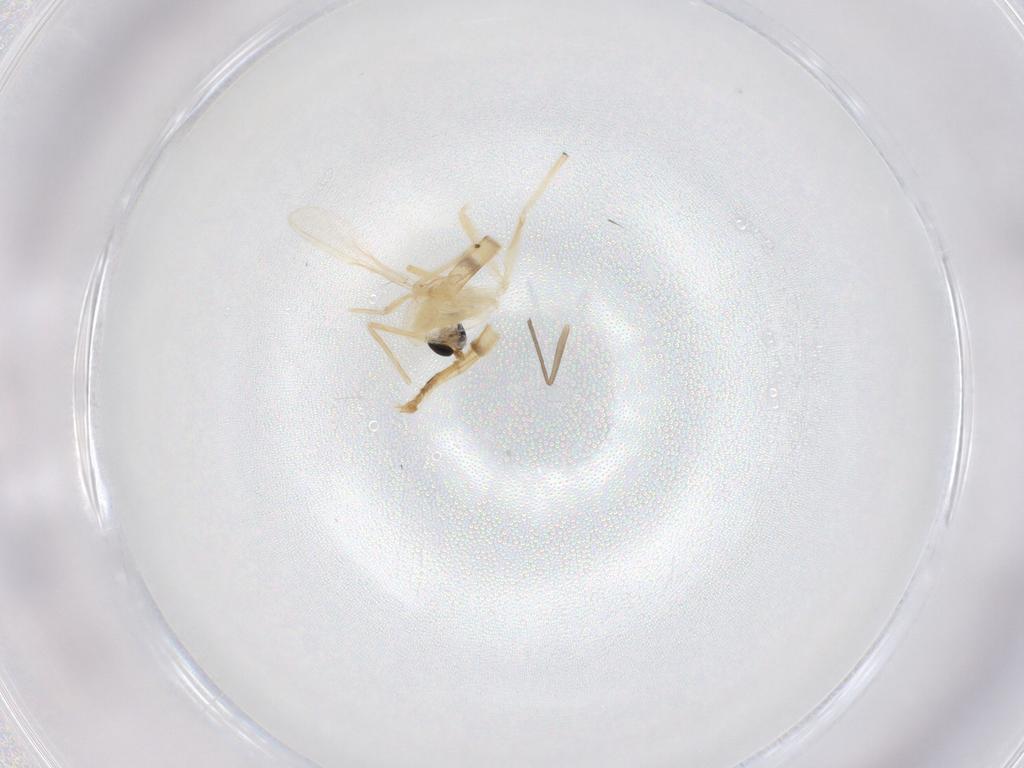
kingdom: Animalia
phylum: Arthropoda
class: Insecta
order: Diptera
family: Chironomidae
